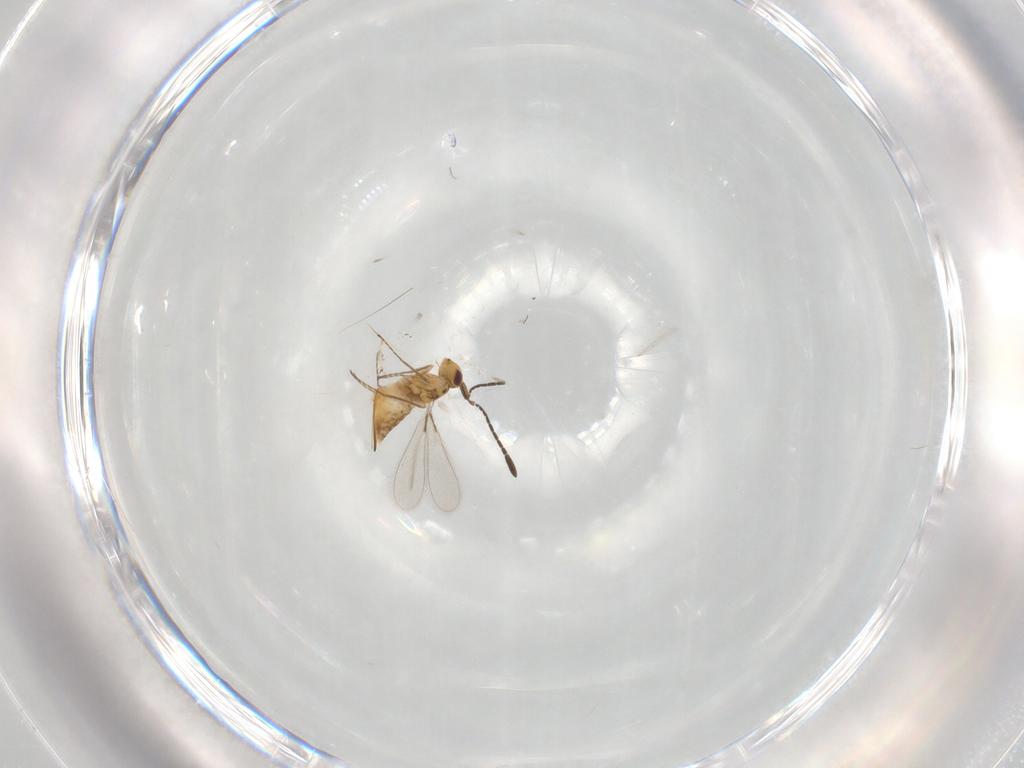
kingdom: Animalia
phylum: Arthropoda
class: Insecta
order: Hymenoptera
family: Mymaridae
